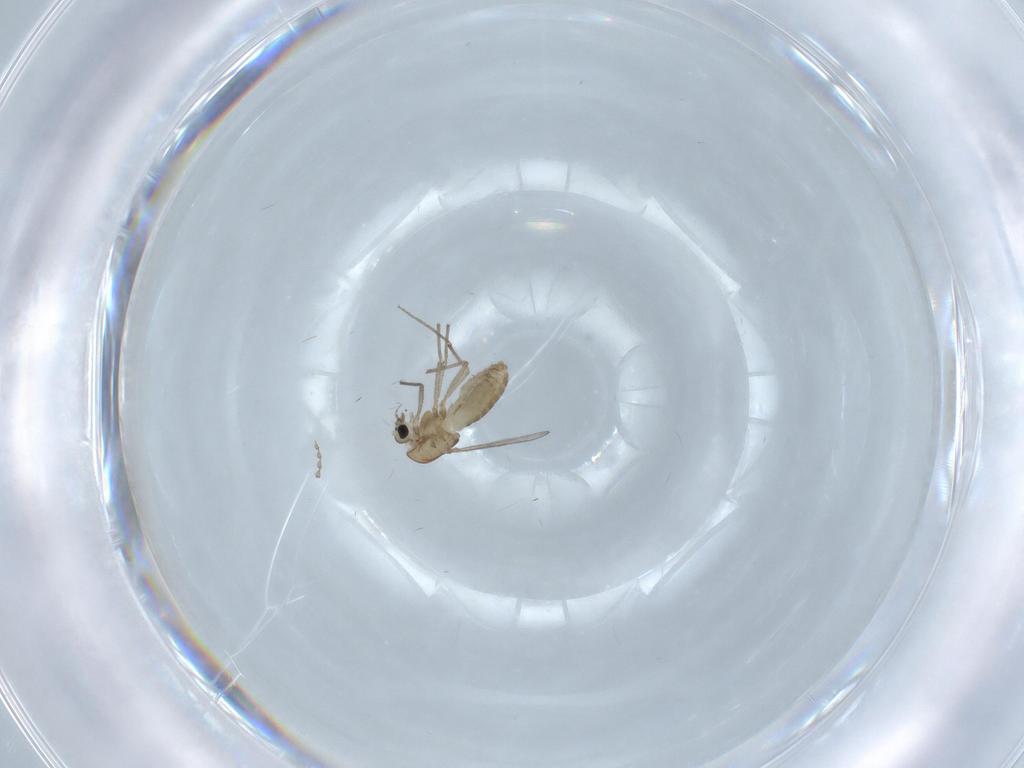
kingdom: Animalia
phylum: Arthropoda
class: Insecta
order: Diptera
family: Chironomidae
